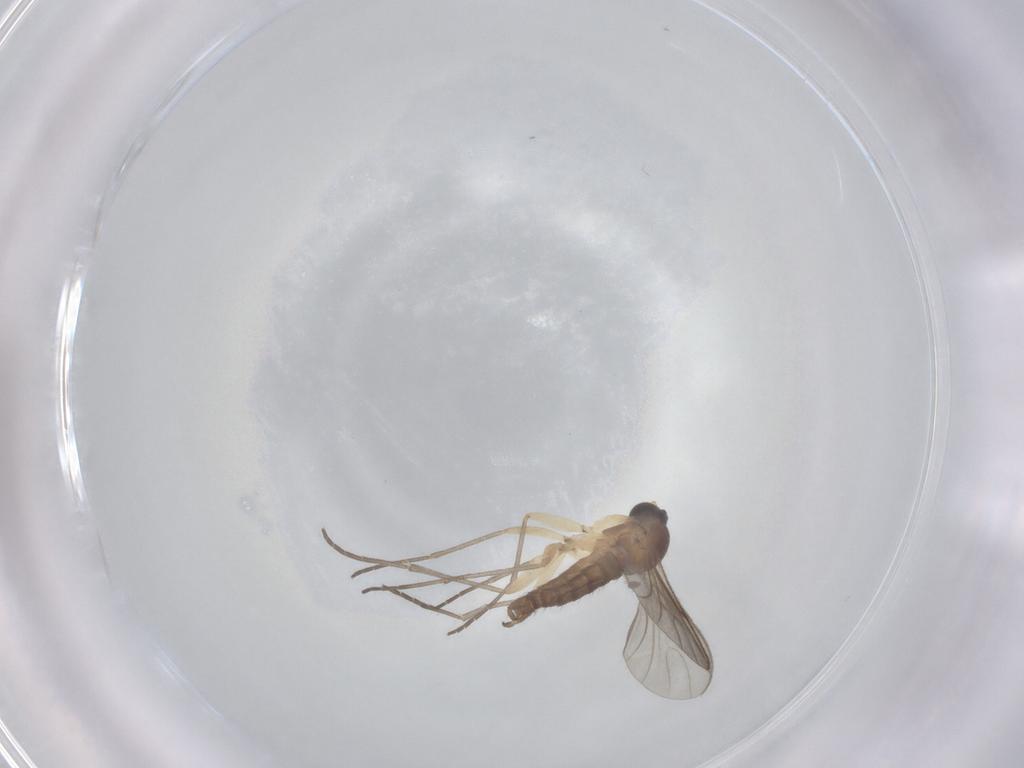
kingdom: Animalia
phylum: Arthropoda
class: Insecta
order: Diptera
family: Sciaridae
